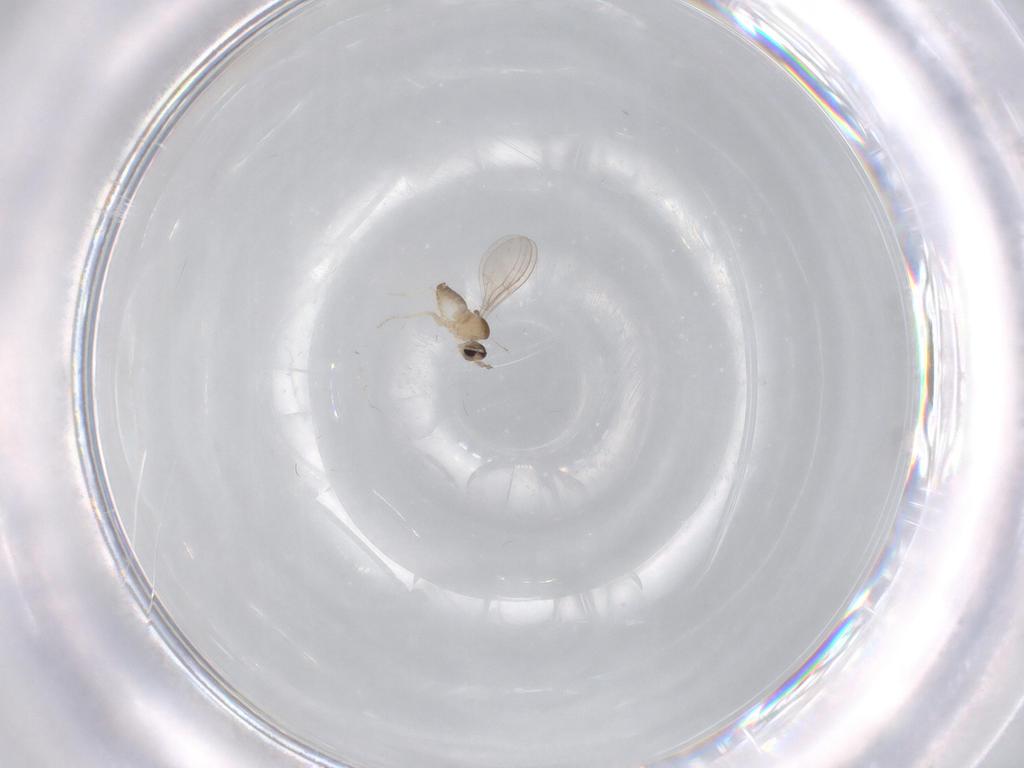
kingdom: Animalia
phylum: Arthropoda
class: Insecta
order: Diptera
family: Cecidomyiidae
